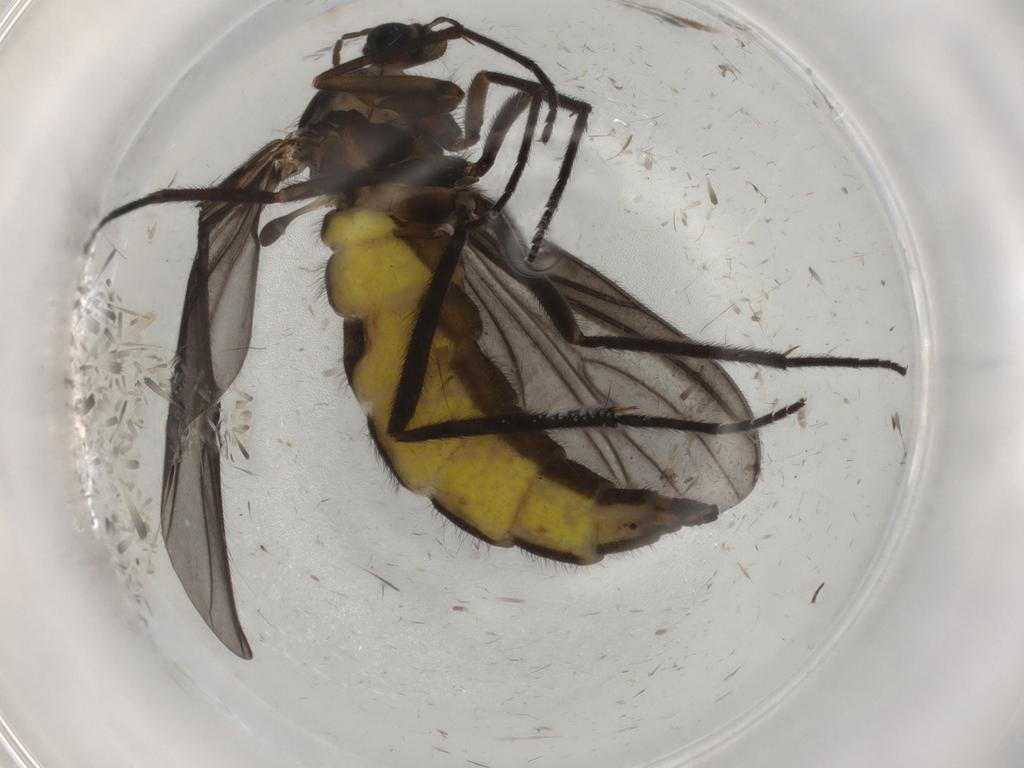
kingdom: Animalia
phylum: Arthropoda
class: Insecta
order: Diptera
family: Sciaridae
